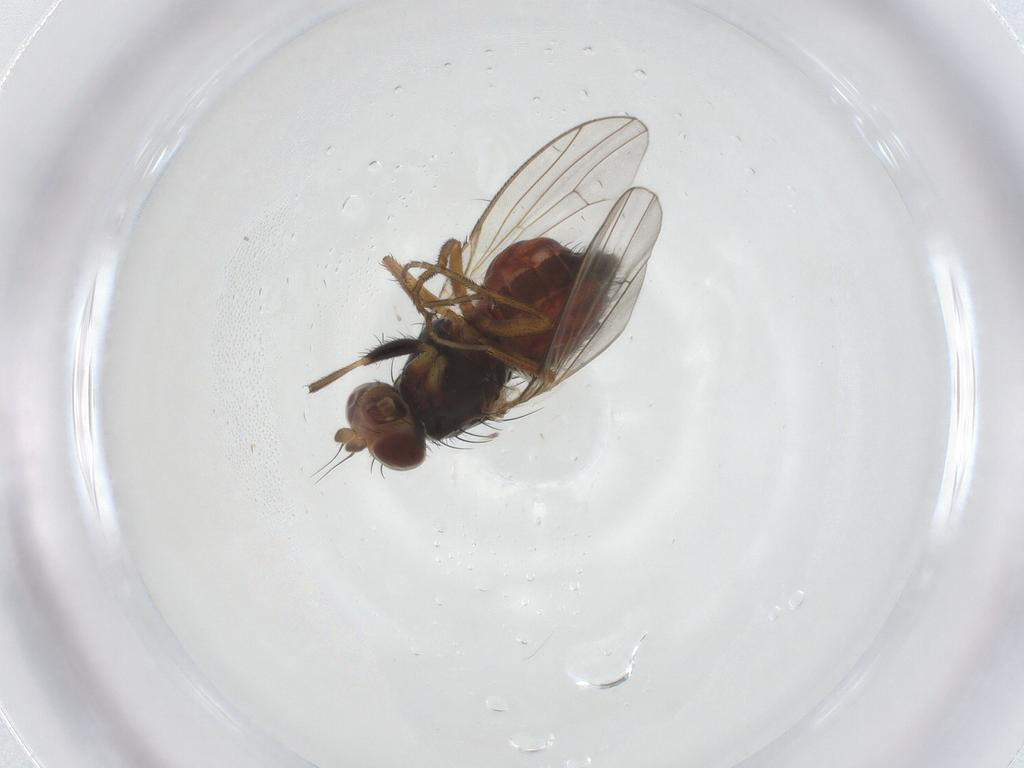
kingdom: Animalia
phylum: Arthropoda
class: Insecta
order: Diptera
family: Heleomyzidae
